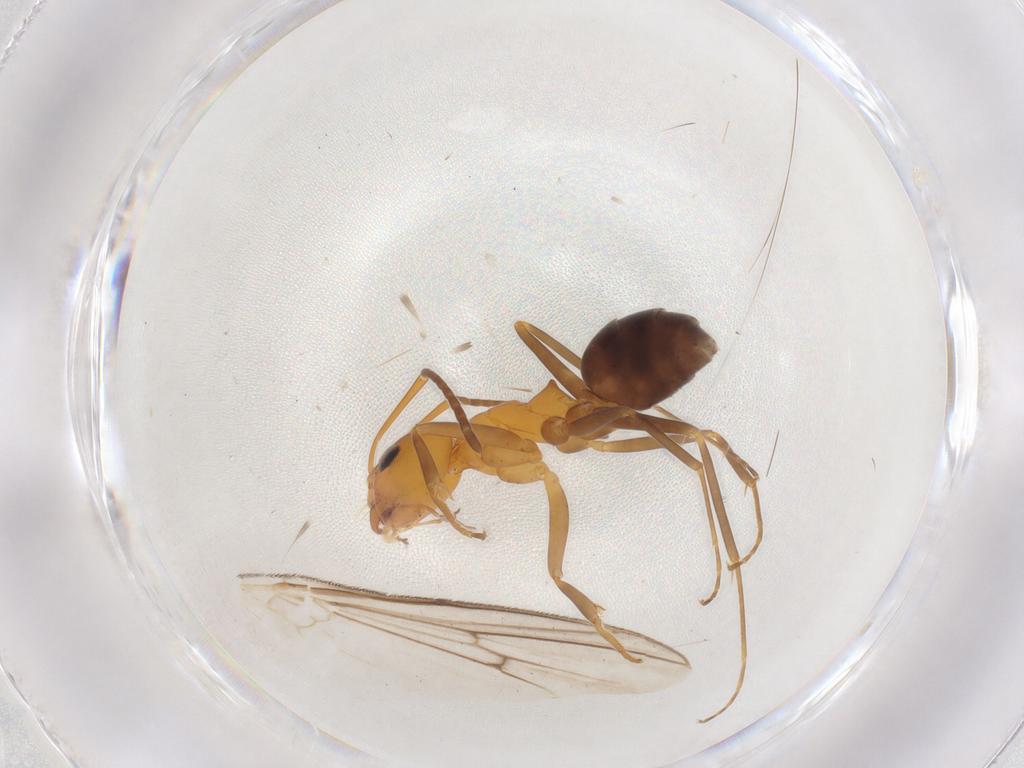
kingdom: Animalia
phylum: Arthropoda
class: Insecta
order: Hymenoptera
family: Formicidae
